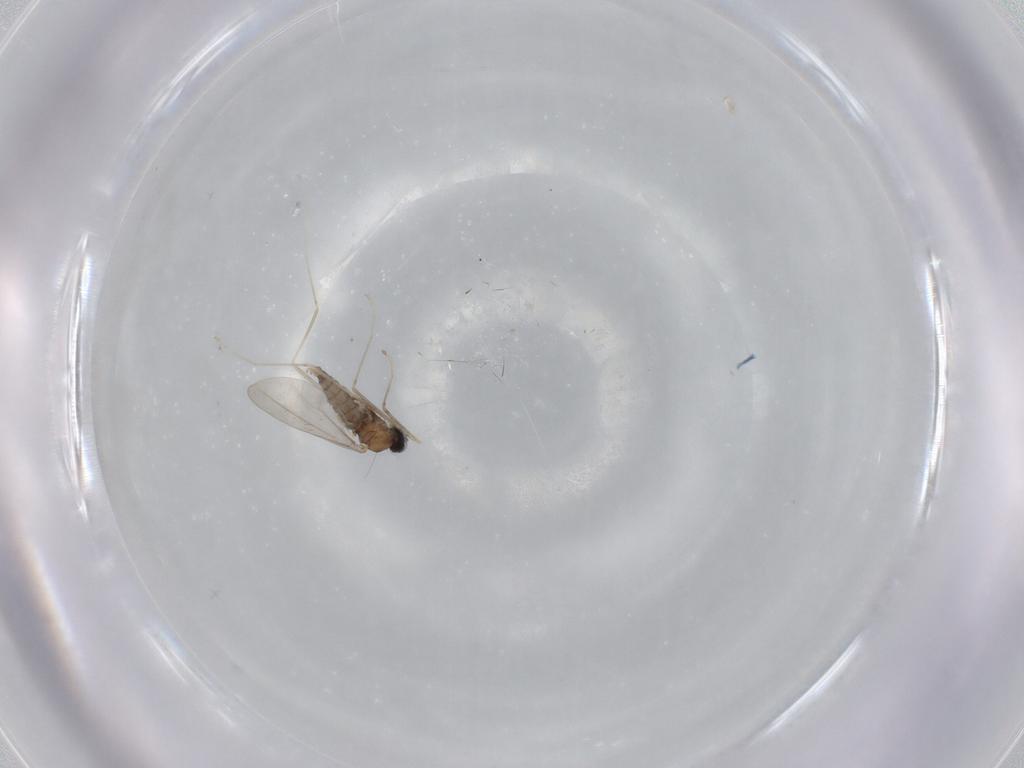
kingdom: Animalia
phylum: Arthropoda
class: Insecta
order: Diptera
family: Cecidomyiidae
